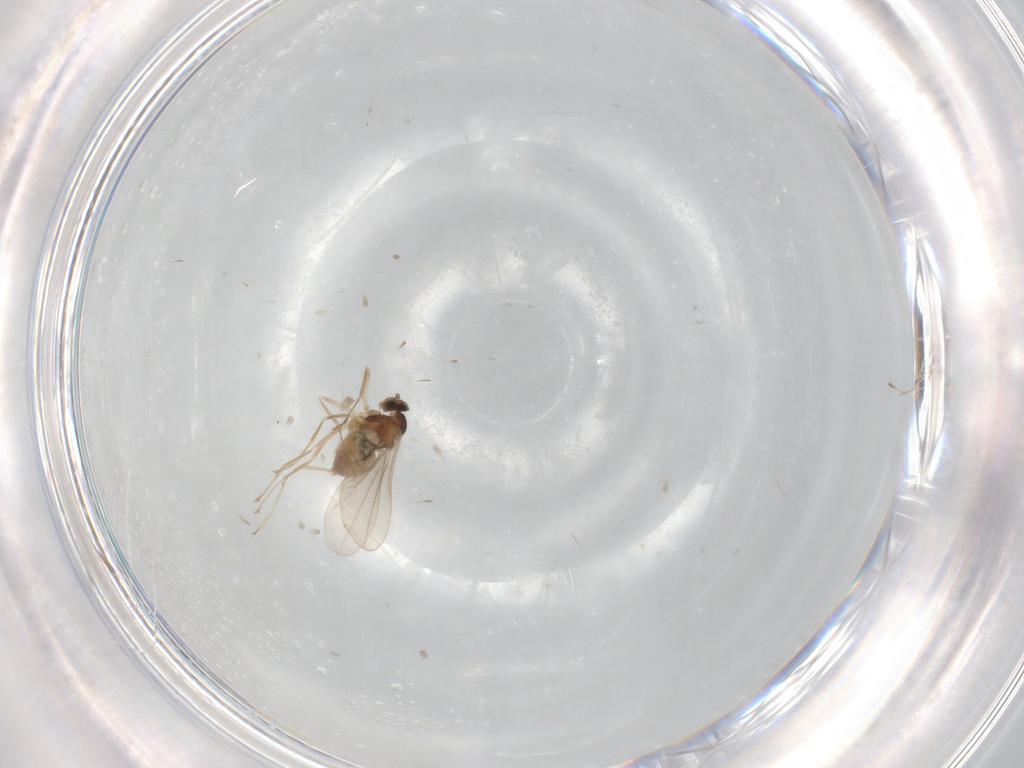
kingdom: Animalia
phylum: Arthropoda
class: Insecta
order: Diptera
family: Cecidomyiidae
